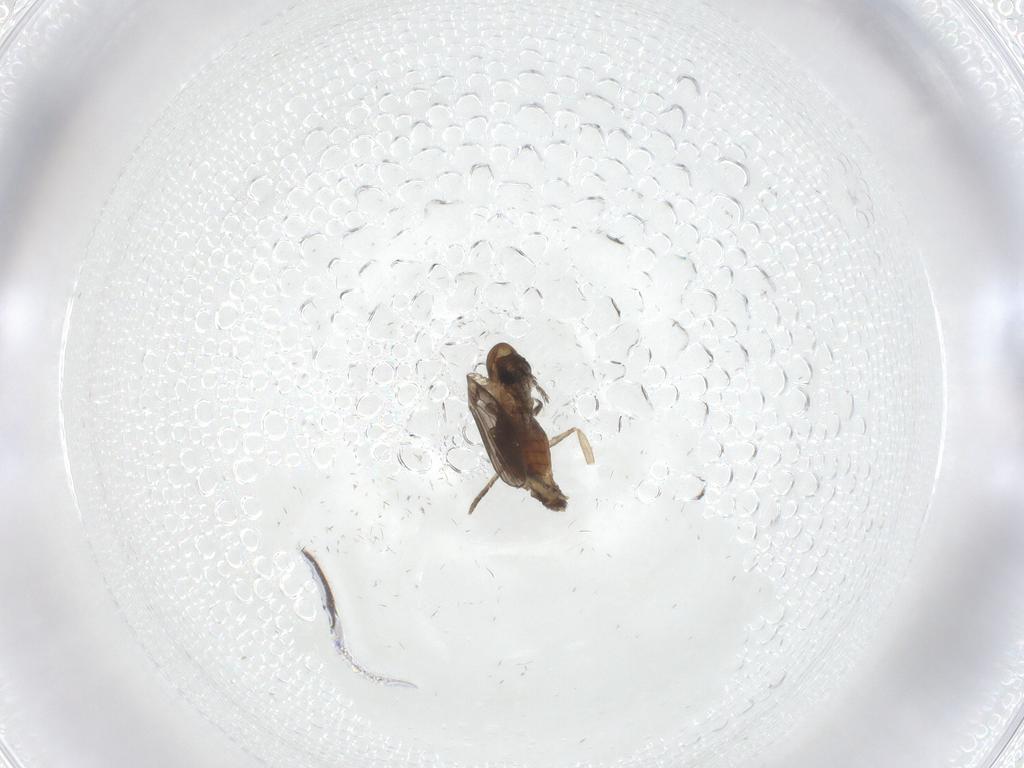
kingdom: Animalia
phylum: Arthropoda
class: Insecta
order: Diptera
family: Psychodidae
